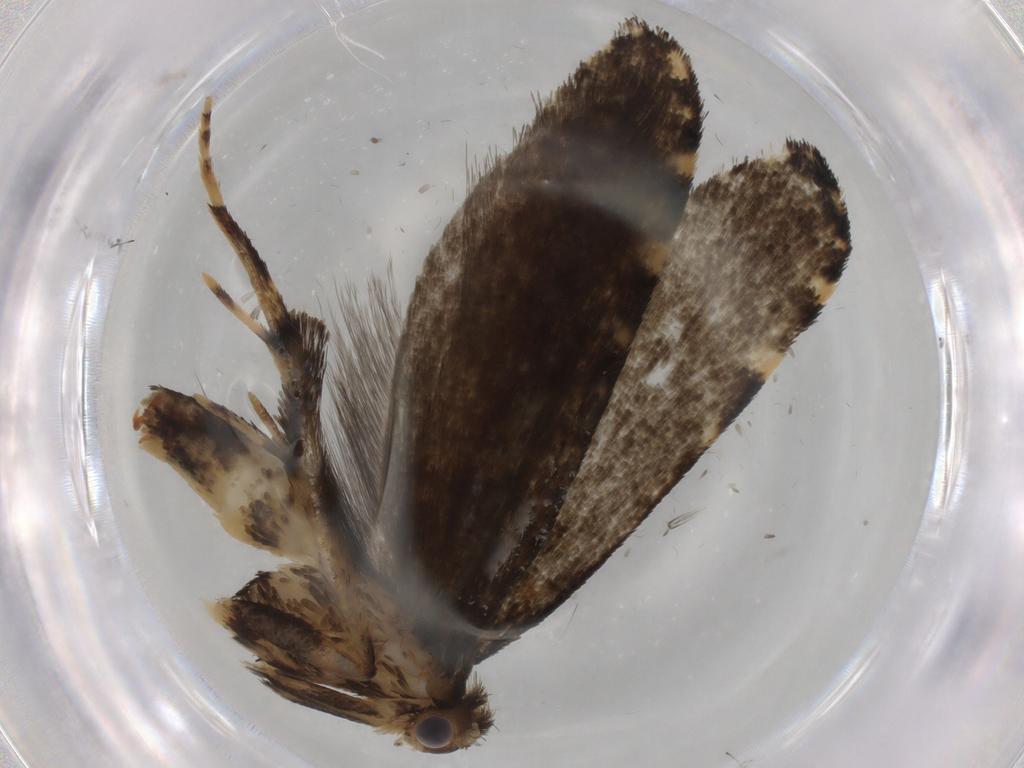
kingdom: Animalia
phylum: Arthropoda
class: Insecta
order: Lepidoptera
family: Tineidae
